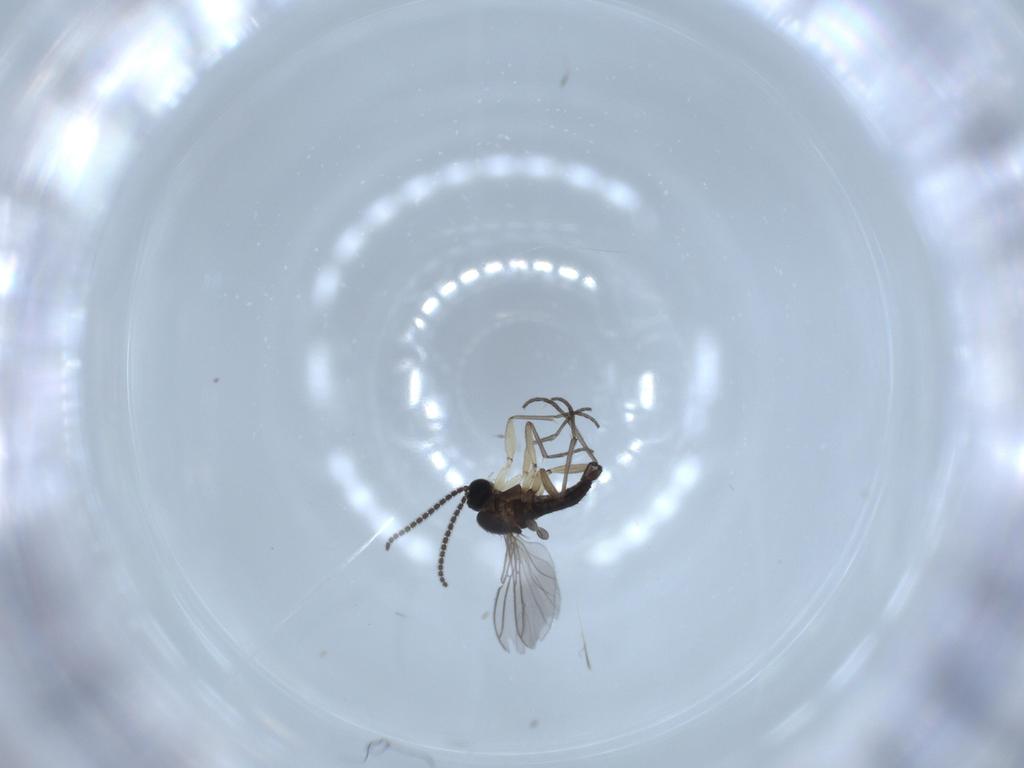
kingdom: Animalia
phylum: Arthropoda
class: Insecta
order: Diptera
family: Sciaridae
